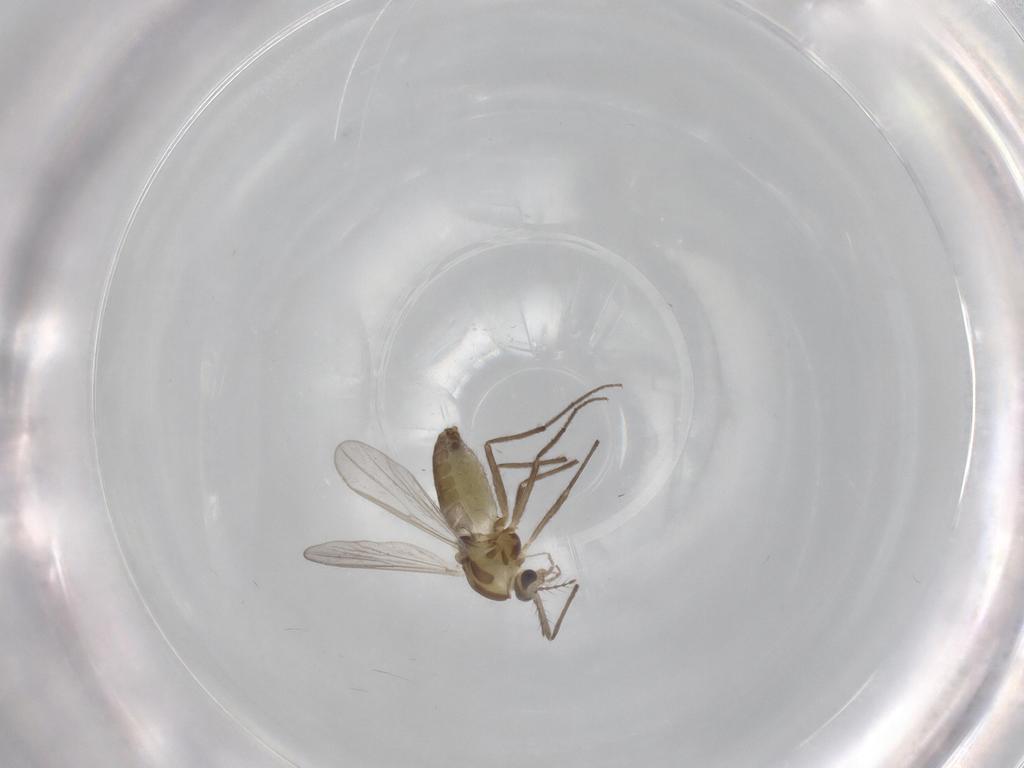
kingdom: Animalia
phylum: Arthropoda
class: Insecta
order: Diptera
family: Chironomidae
